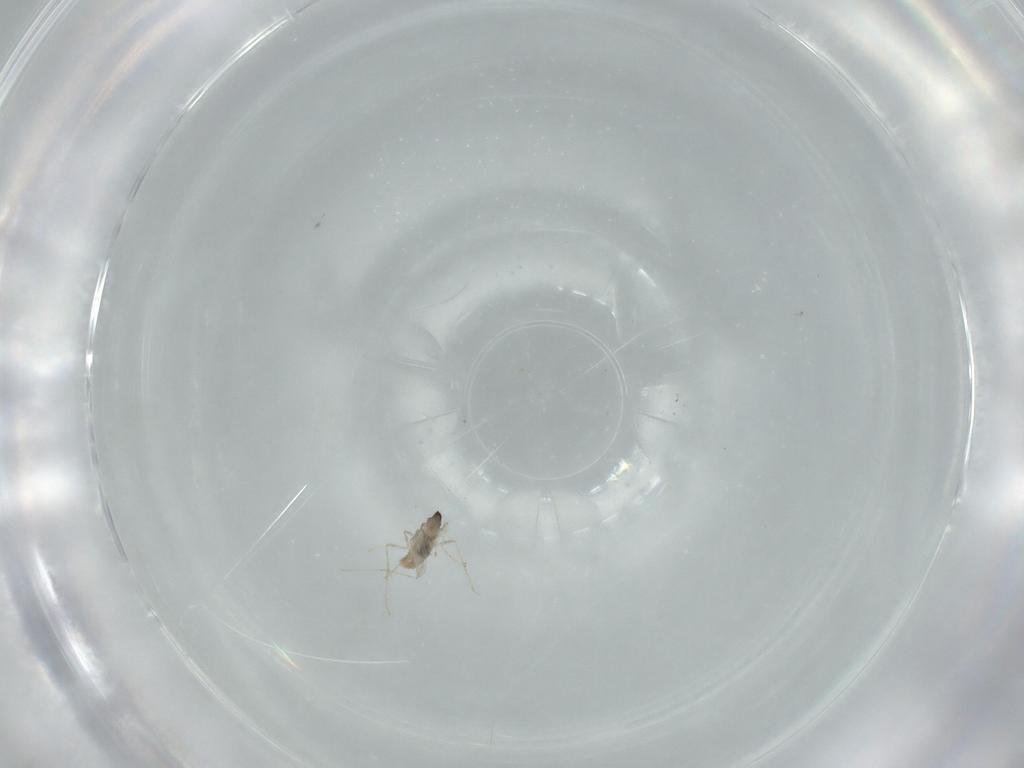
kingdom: Animalia
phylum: Arthropoda
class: Insecta
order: Diptera
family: Cecidomyiidae
